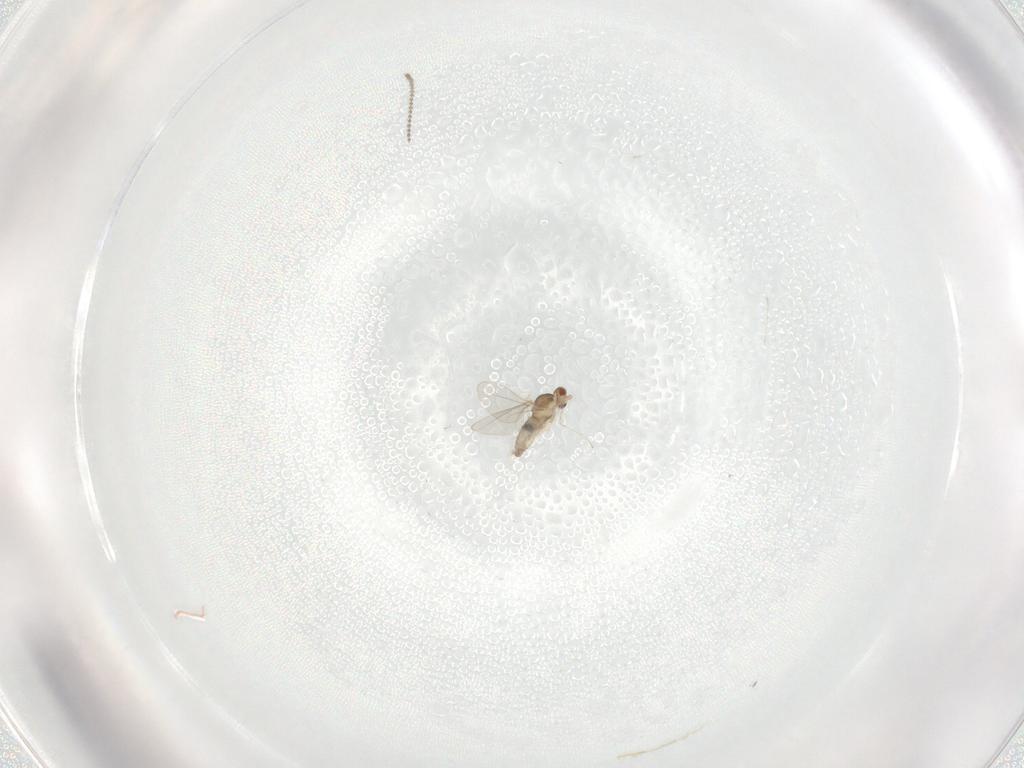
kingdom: Animalia
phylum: Arthropoda
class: Insecta
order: Diptera
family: Cecidomyiidae
